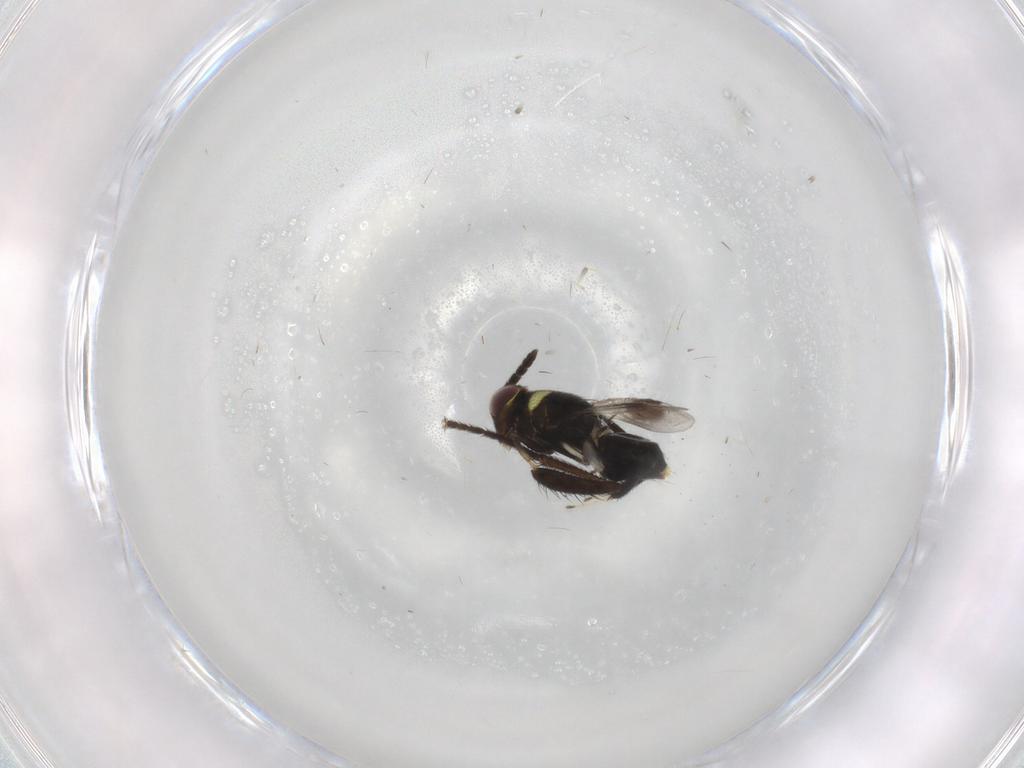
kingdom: Animalia
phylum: Arthropoda
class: Insecta
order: Hymenoptera
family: Aphelinidae
